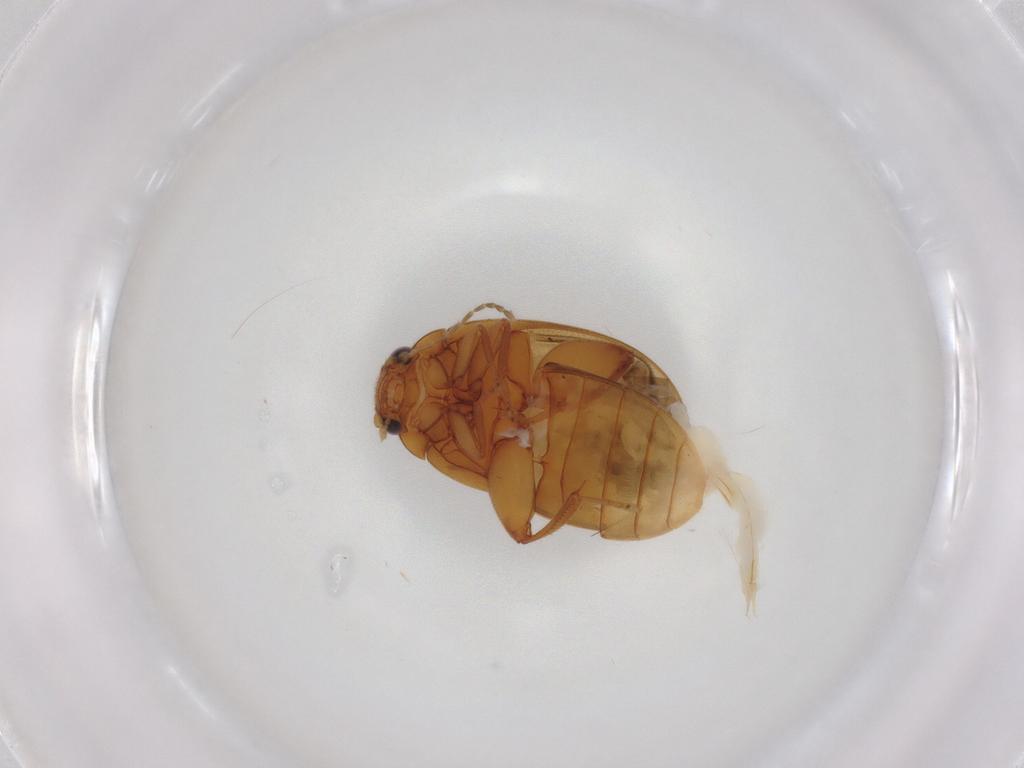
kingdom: Animalia
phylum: Arthropoda
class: Insecta
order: Coleoptera
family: Scirtidae
